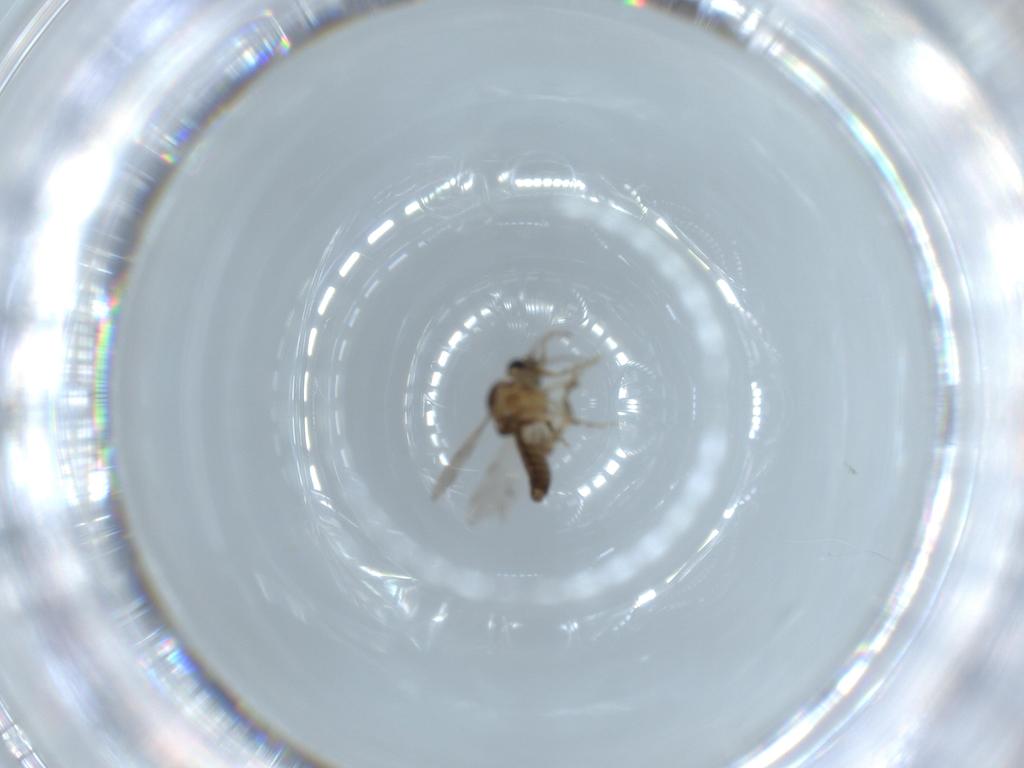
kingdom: Animalia
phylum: Arthropoda
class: Insecta
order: Diptera
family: Chironomidae
